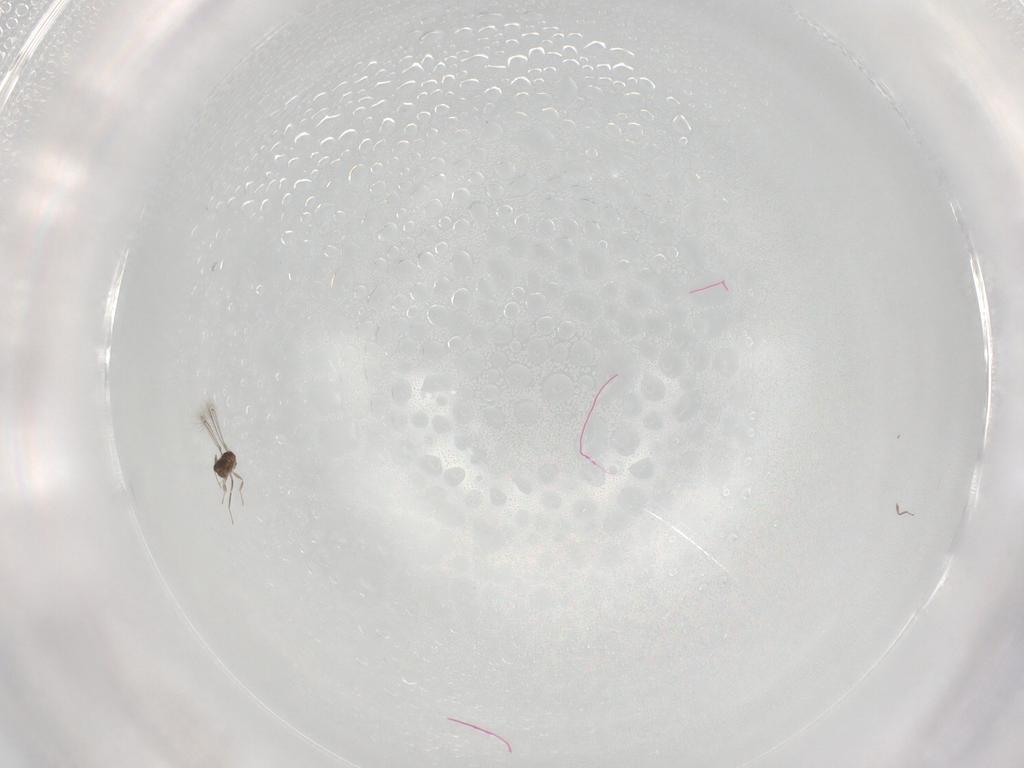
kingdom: Animalia
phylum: Arthropoda
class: Insecta
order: Hymenoptera
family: Mymaridae
